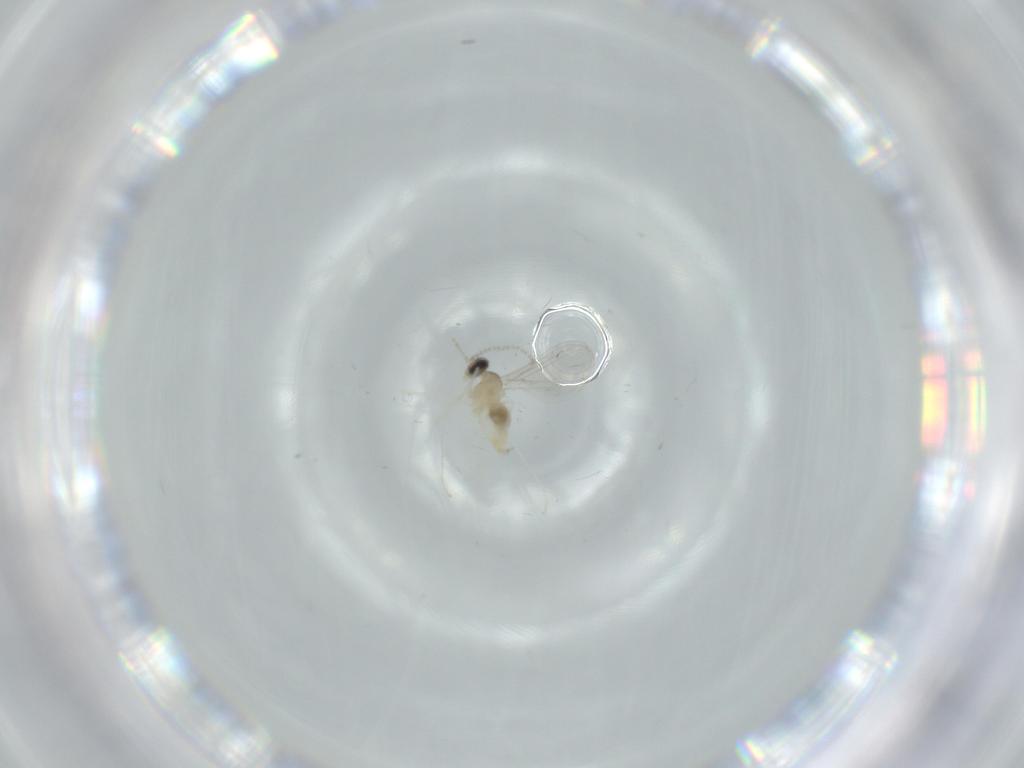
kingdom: Animalia
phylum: Arthropoda
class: Insecta
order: Diptera
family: Cecidomyiidae
